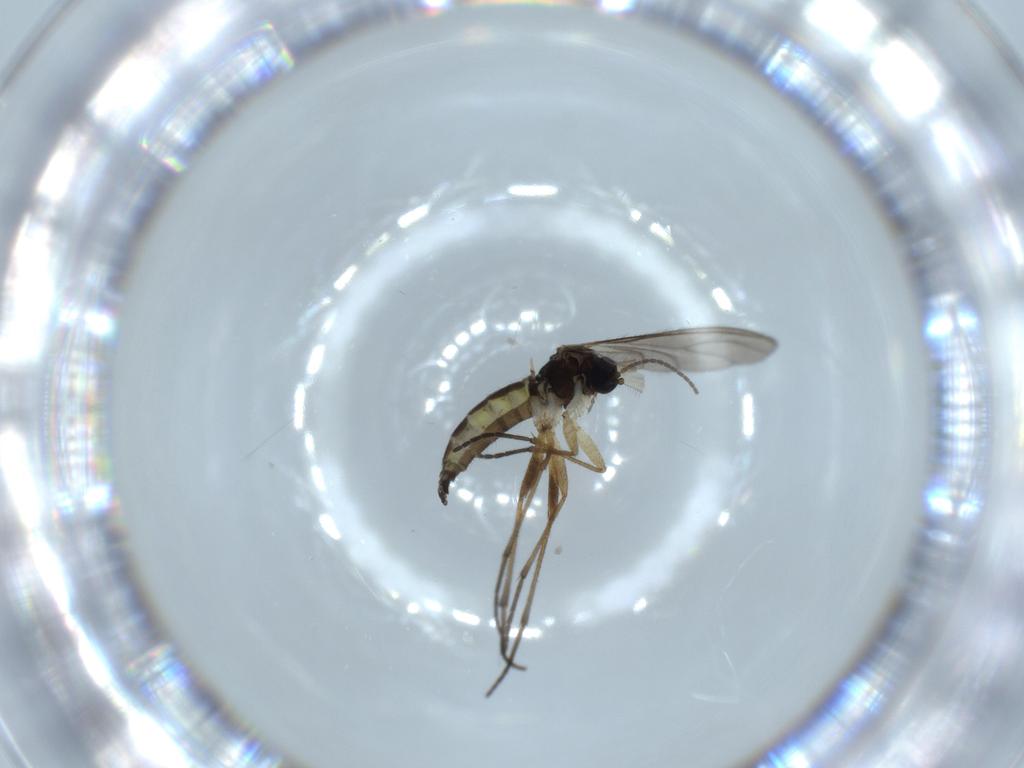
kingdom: Animalia
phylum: Arthropoda
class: Insecta
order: Diptera
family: Sciaridae
